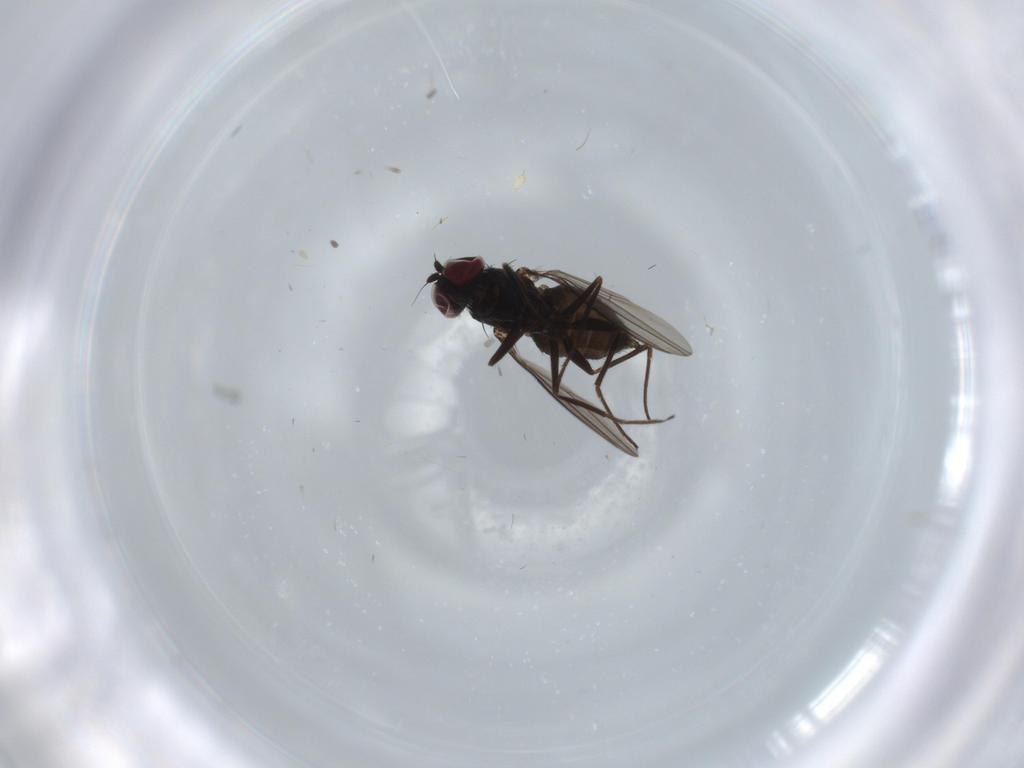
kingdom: Animalia
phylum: Arthropoda
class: Insecta
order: Diptera
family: Dolichopodidae
